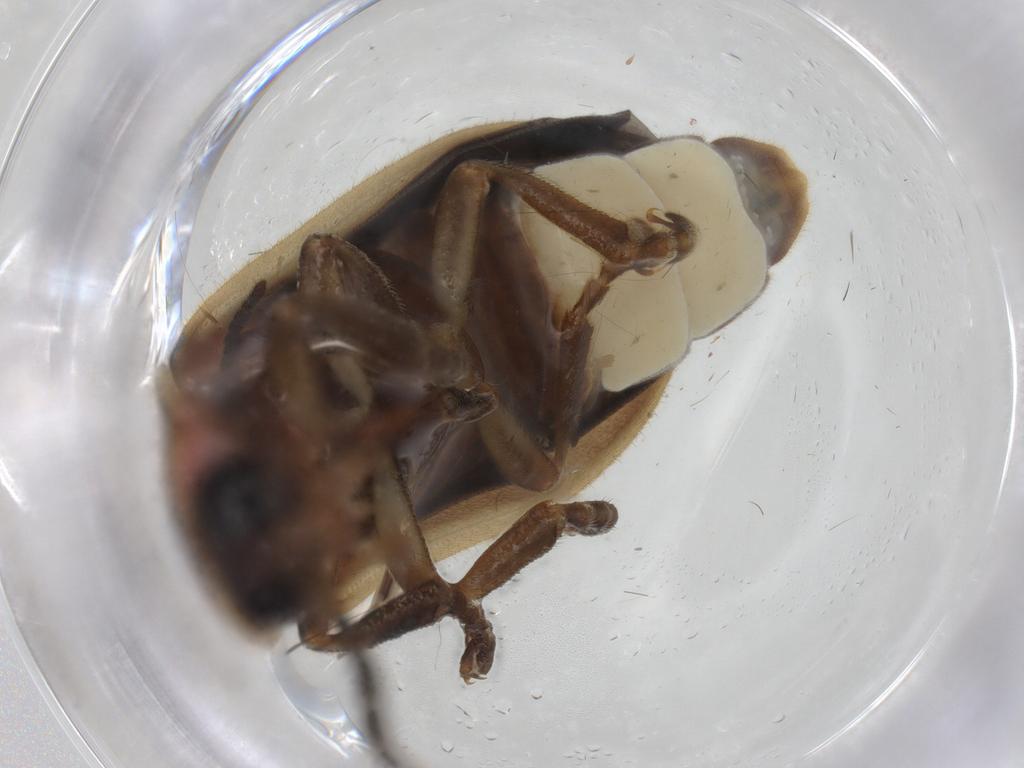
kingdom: Animalia
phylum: Arthropoda
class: Insecta
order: Coleoptera
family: Lampyridae
